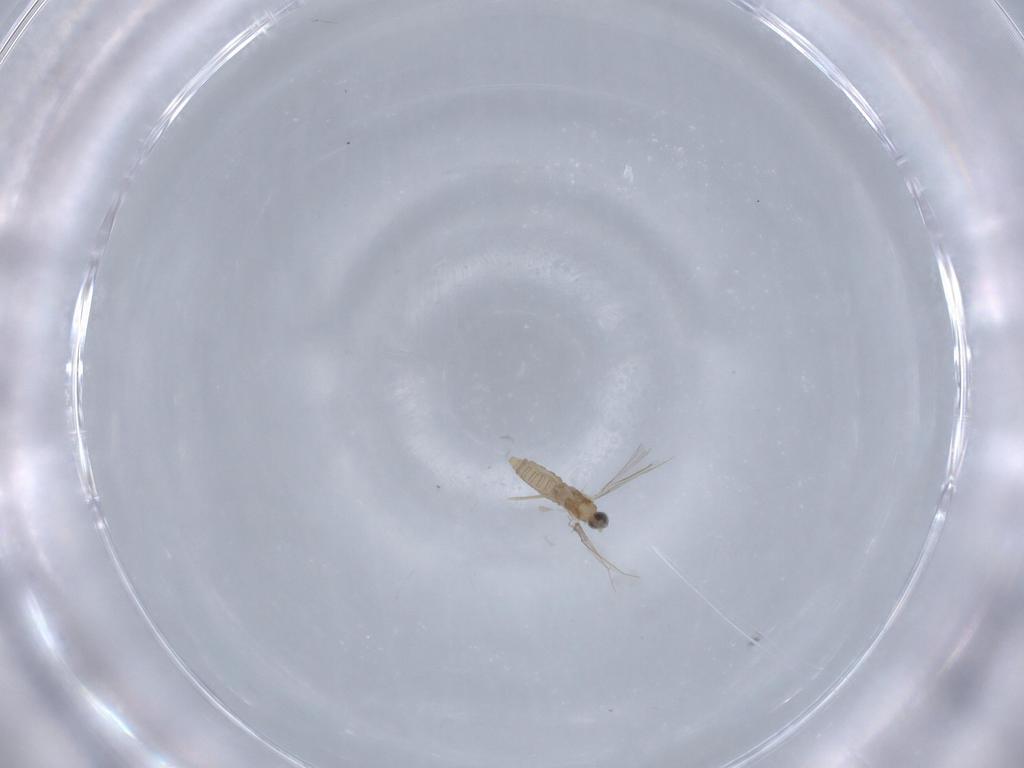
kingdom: Animalia
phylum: Arthropoda
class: Insecta
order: Diptera
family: Cecidomyiidae
